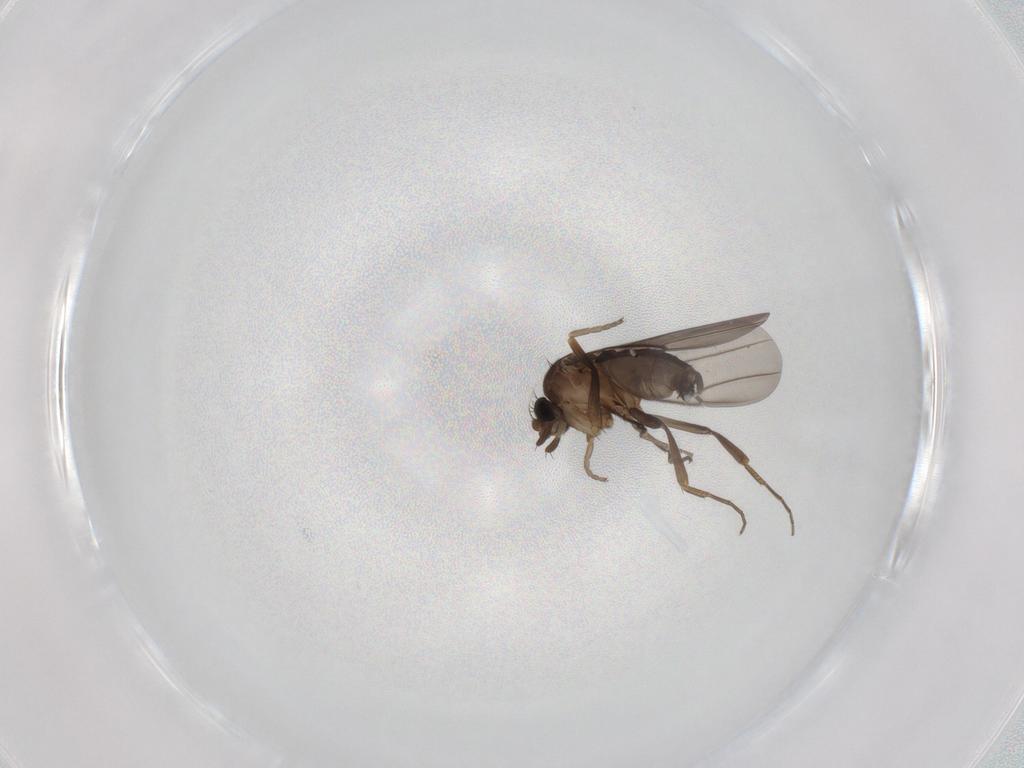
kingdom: Animalia
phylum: Arthropoda
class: Insecta
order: Diptera
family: Phoridae
